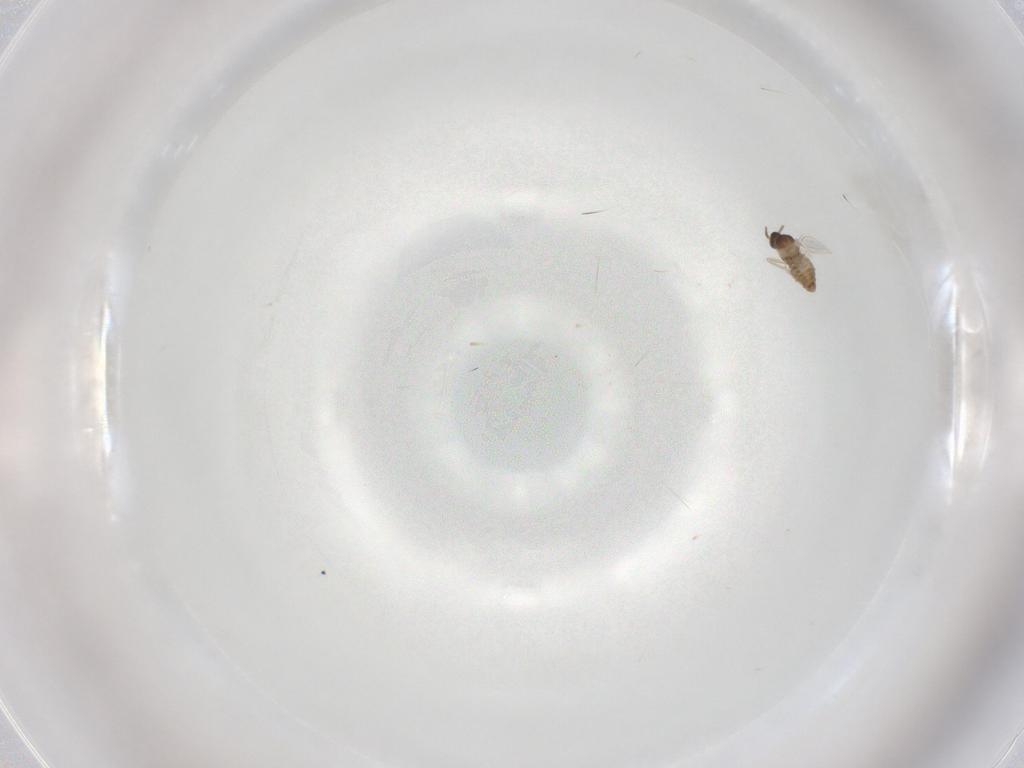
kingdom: Animalia
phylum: Arthropoda
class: Insecta
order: Diptera
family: Cecidomyiidae
